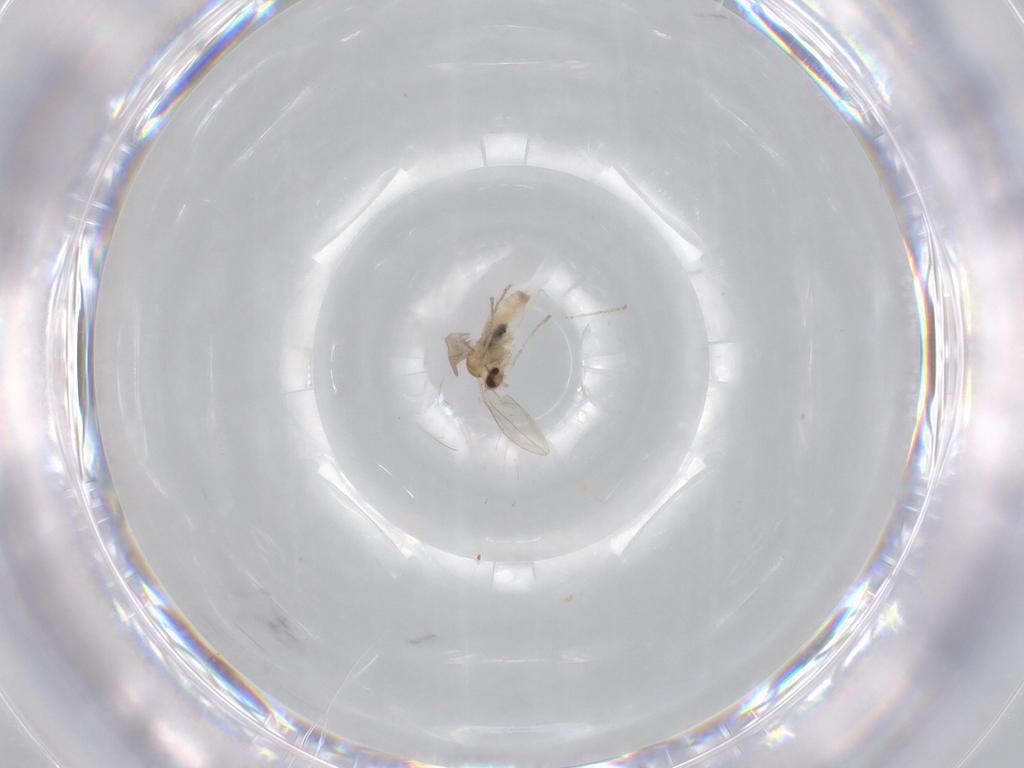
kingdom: Animalia
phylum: Arthropoda
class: Insecta
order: Diptera
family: Cecidomyiidae
